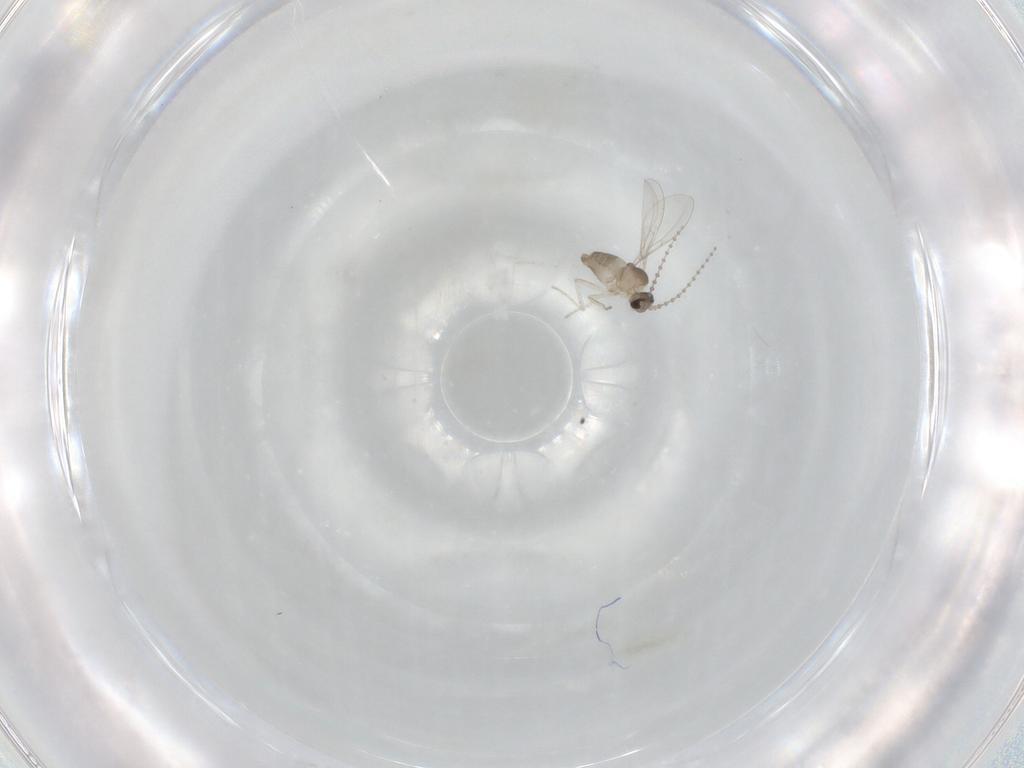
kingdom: Animalia
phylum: Arthropoda
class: Insecta
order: Diptera
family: Cecidomyiidae
